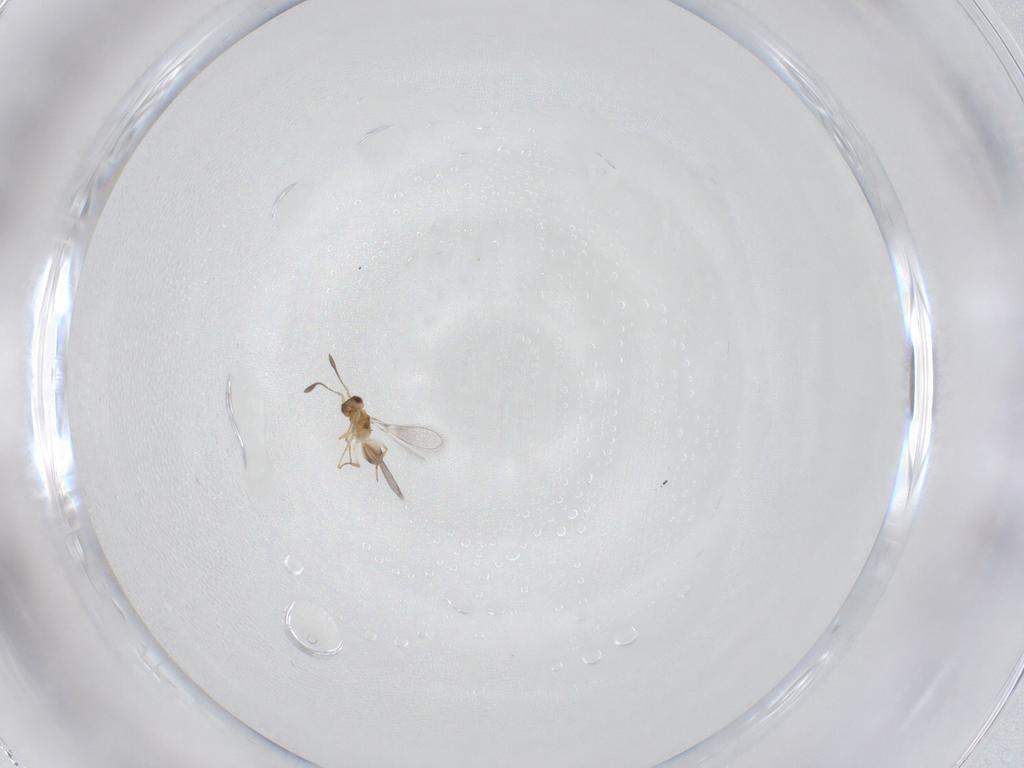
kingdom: Animalia
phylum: Arthropoda
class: Insecta
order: Hymenoptera
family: Mymaridae
